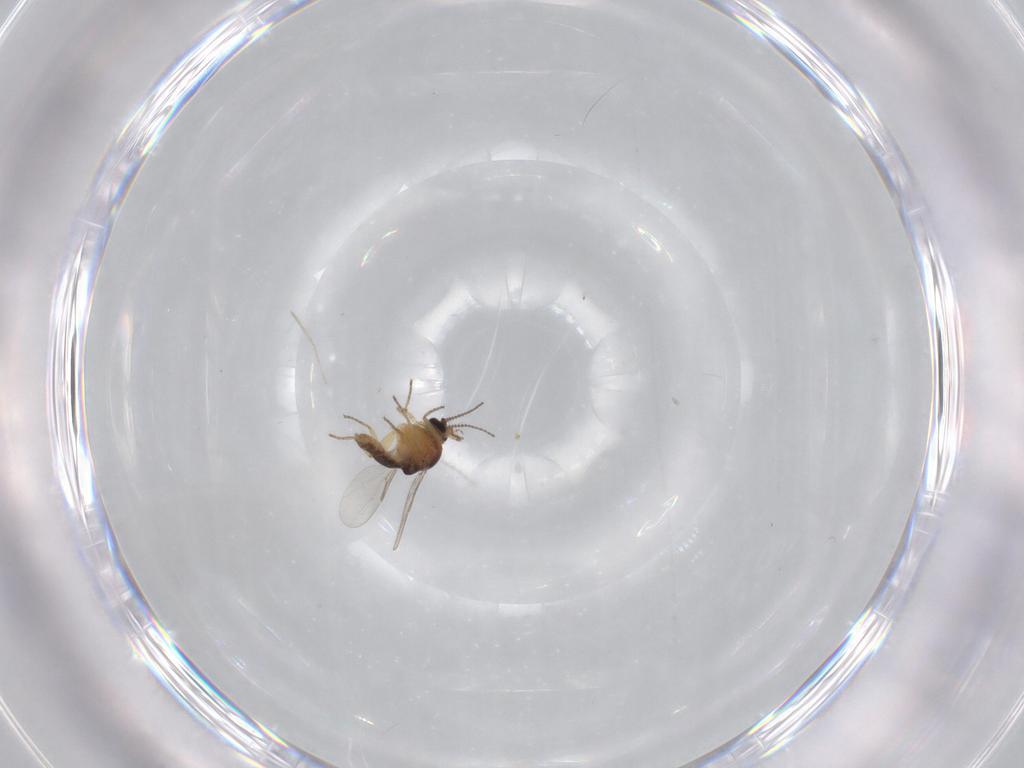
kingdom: Animalia
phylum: Arthropoda
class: Insecta
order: Diptera
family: Ceratopogonidae
